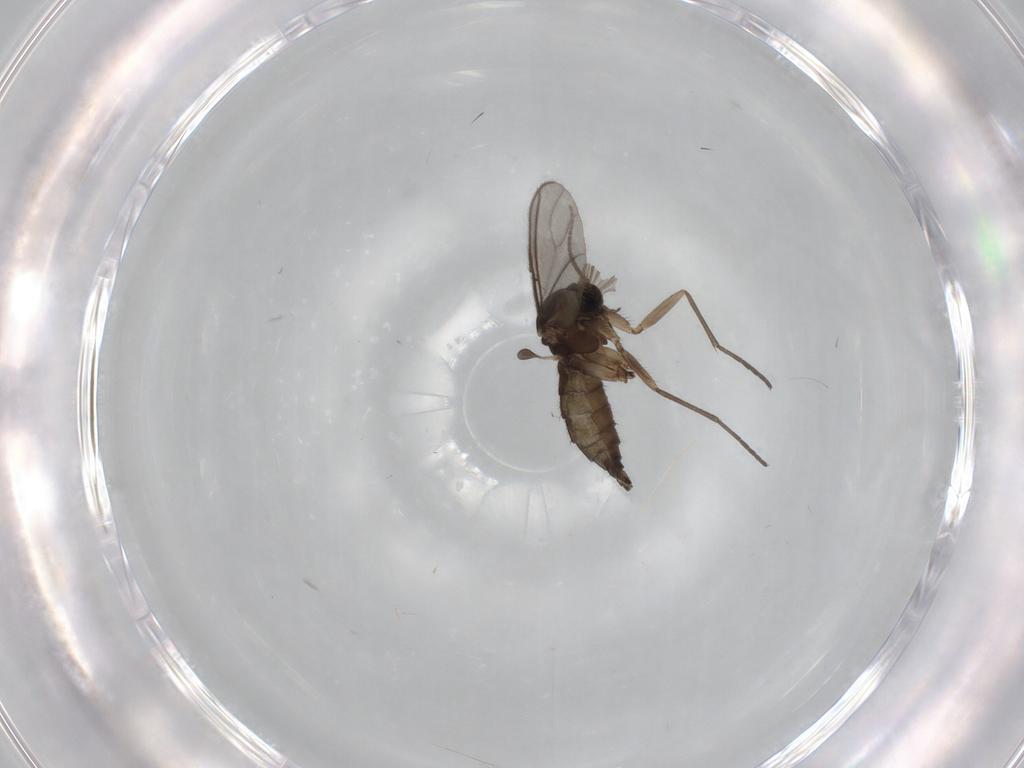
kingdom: Animalia
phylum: Arthropoda
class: Insecta
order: Diptera
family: Sciaridae
